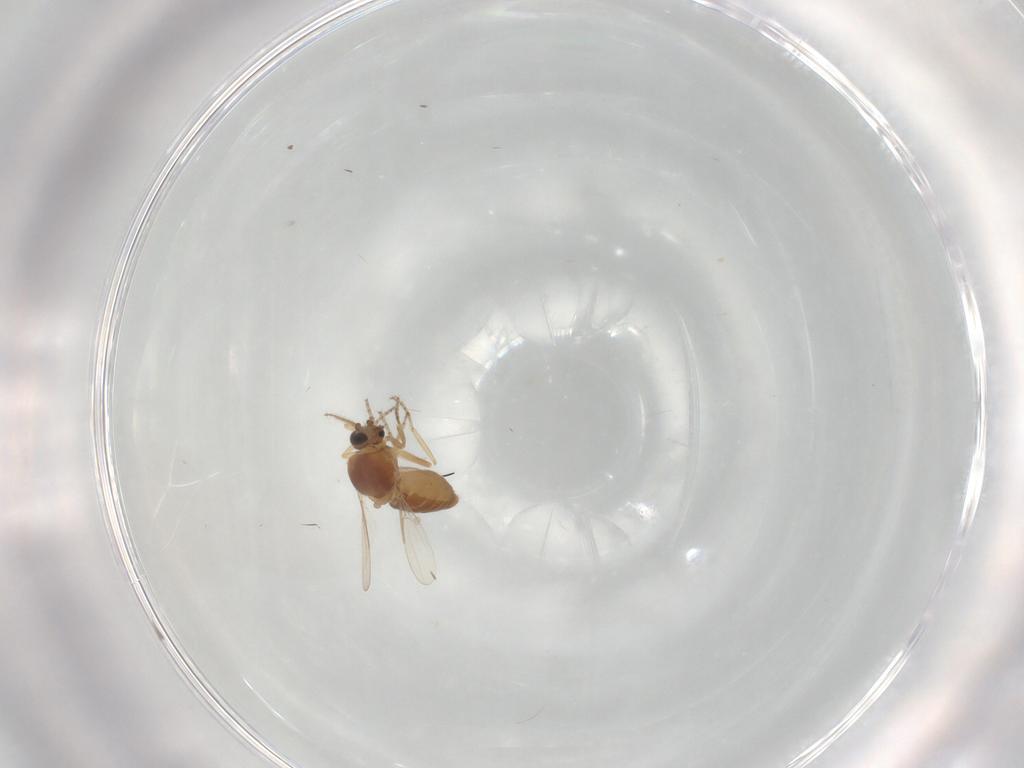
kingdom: Animalia
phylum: Arthropoda
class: Insecta
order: Diptera
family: Ceratopogonidae
